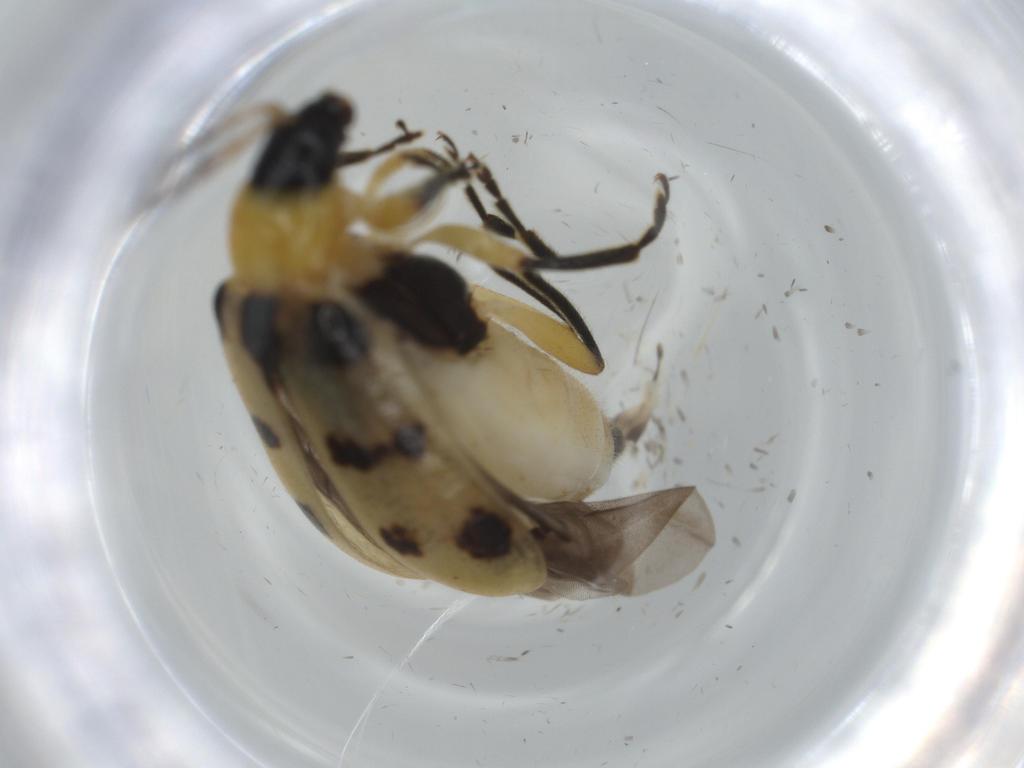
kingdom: Animalia
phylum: Arthropoda
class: Insecta
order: Coleoptera
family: Chrysomelidae
